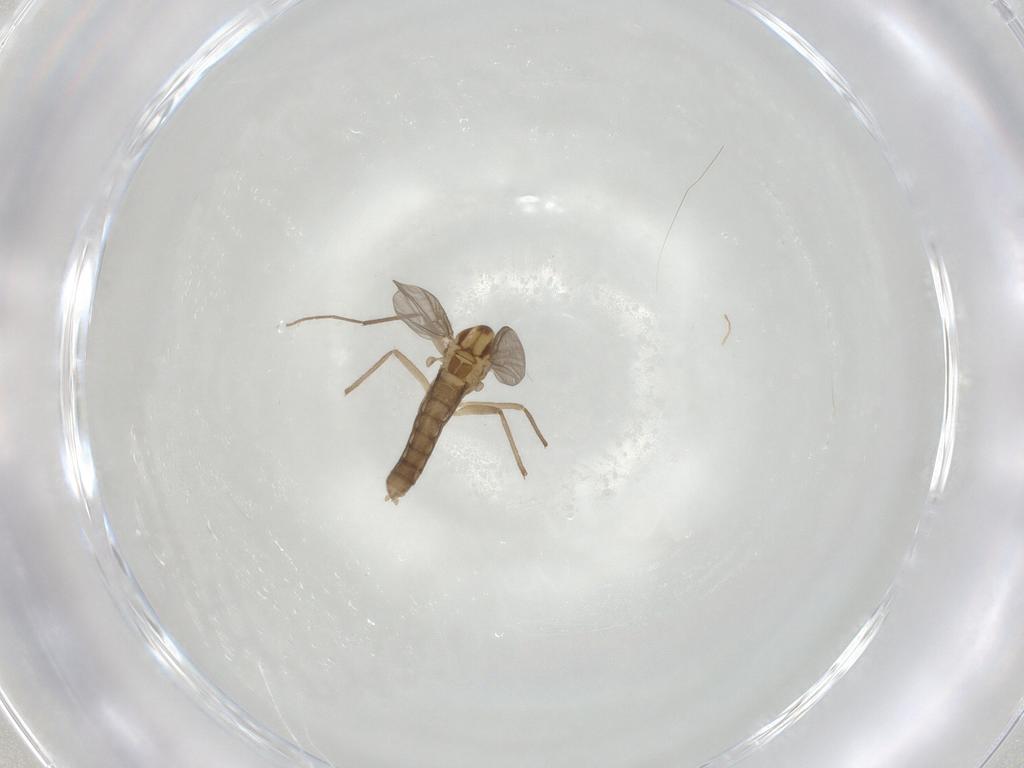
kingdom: Animalia
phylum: Arthropoda
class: Insecta
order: Diptera
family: Chironomidae
